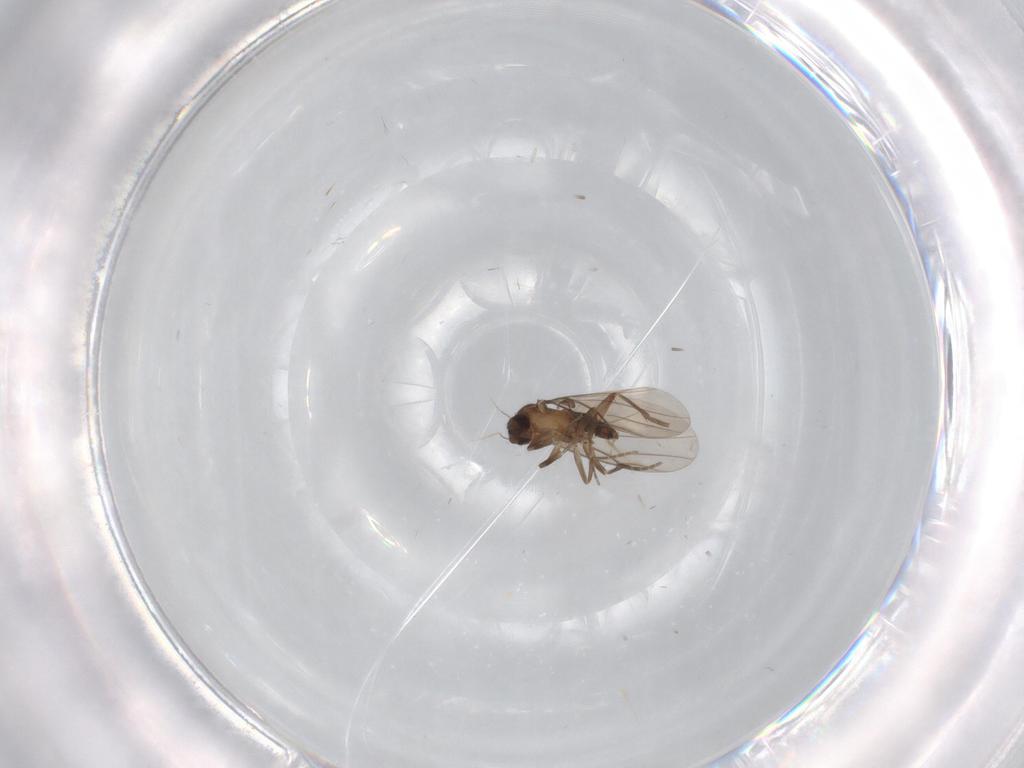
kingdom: Animalia
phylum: Arthropoda
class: Insecta
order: Diptera
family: Phoridae
